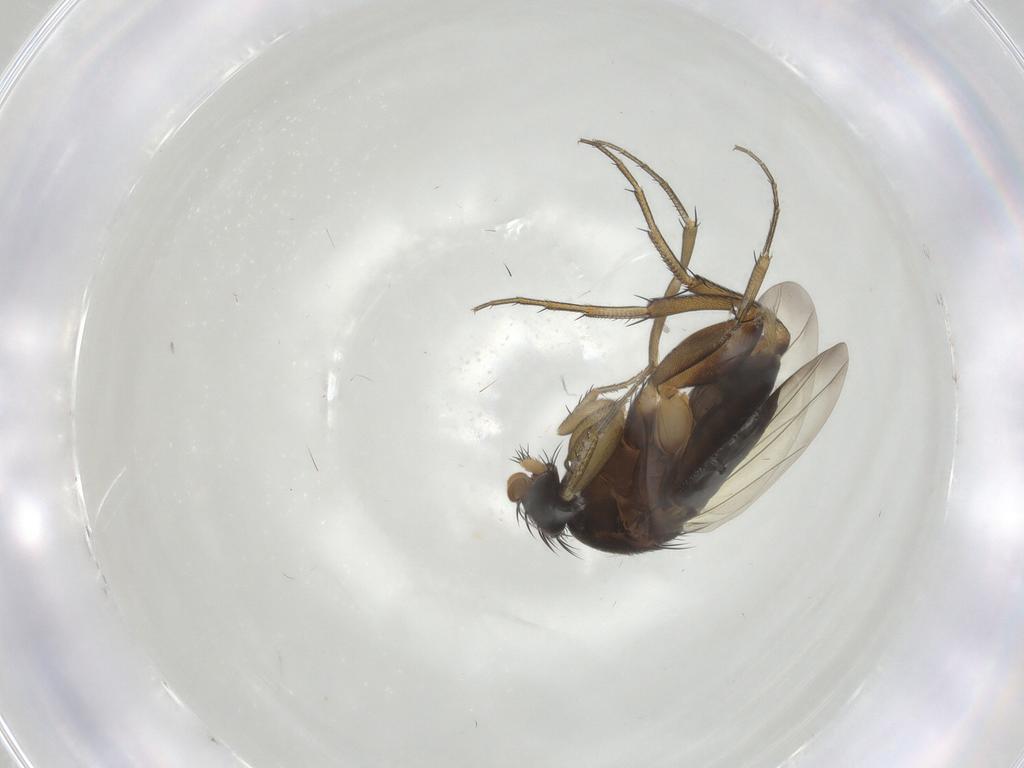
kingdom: Animalia
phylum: Arthropoda
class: Insecta
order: Diptera
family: Phoridae
